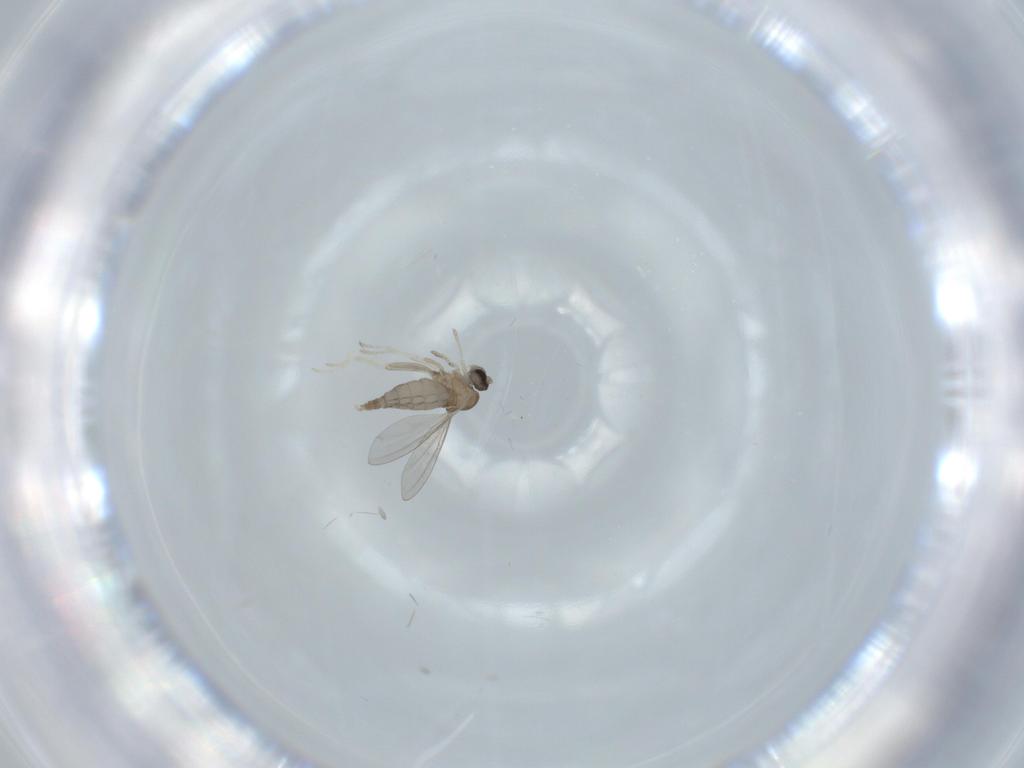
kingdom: Animalia
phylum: Arthropoda
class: Insecta
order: Diptera
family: Cecidomyiidae
